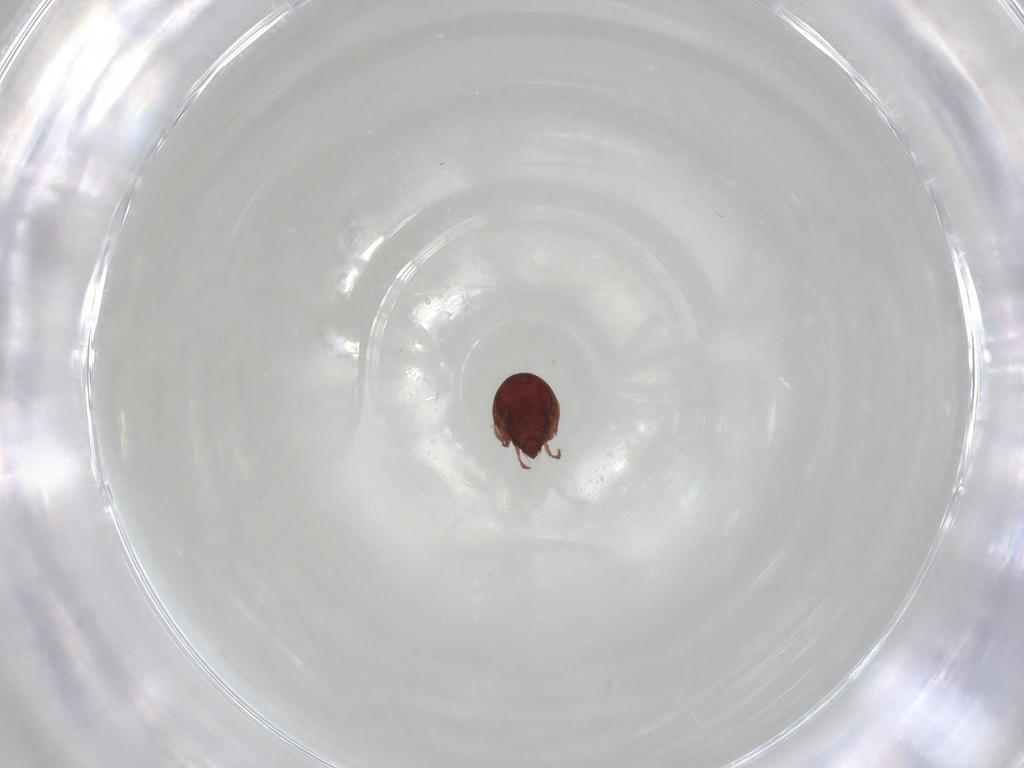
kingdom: Animalia
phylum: Arthropoda
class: Arachnida
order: Sarcoptiformes
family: Ceratozetidae
